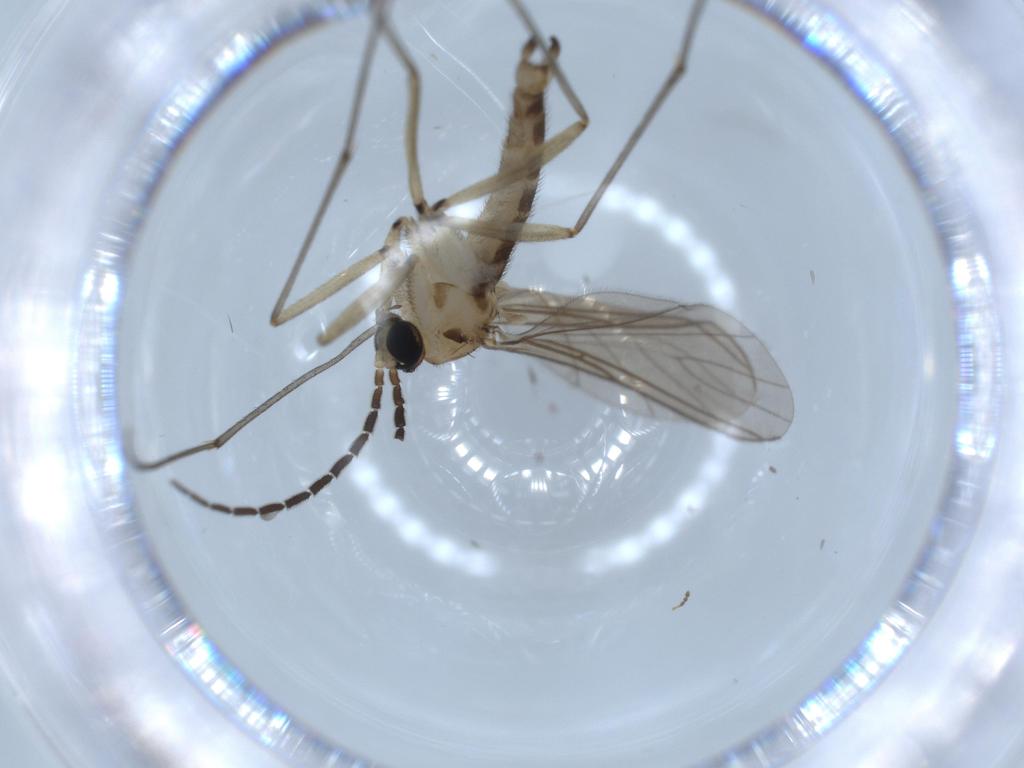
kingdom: Animalia
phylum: Arthropoda
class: Insecta
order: Diptera
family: Sciaridae
